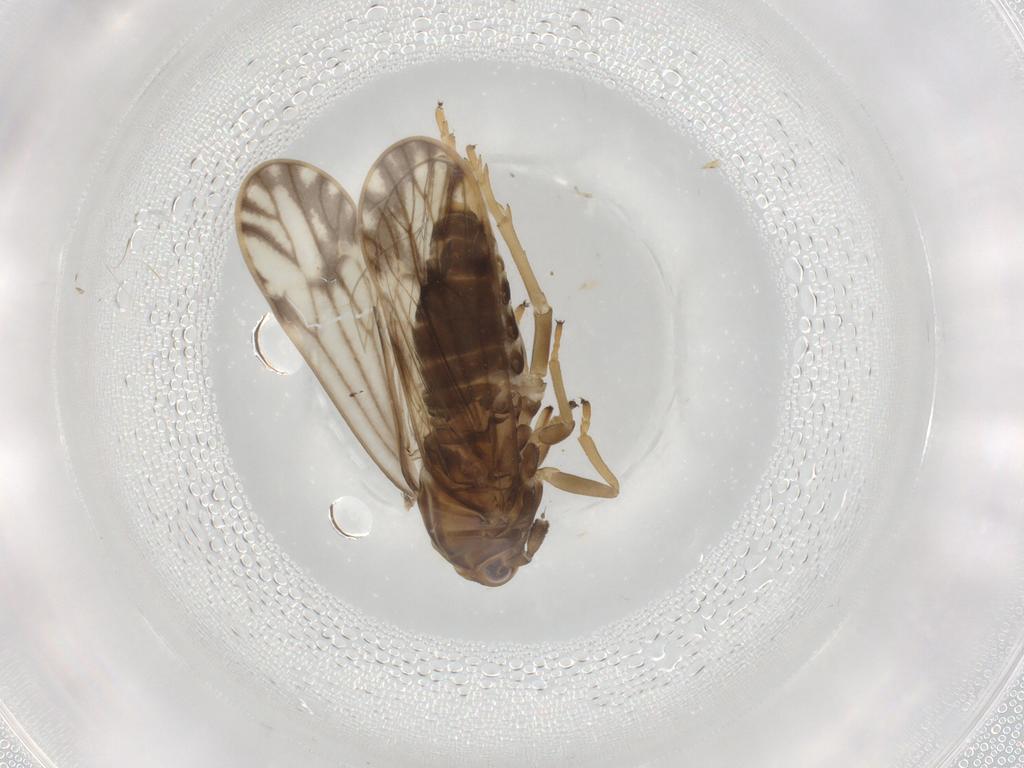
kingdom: Animalia
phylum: Arthropoda
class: Insecta
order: Hemiptera
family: Delphacidae
